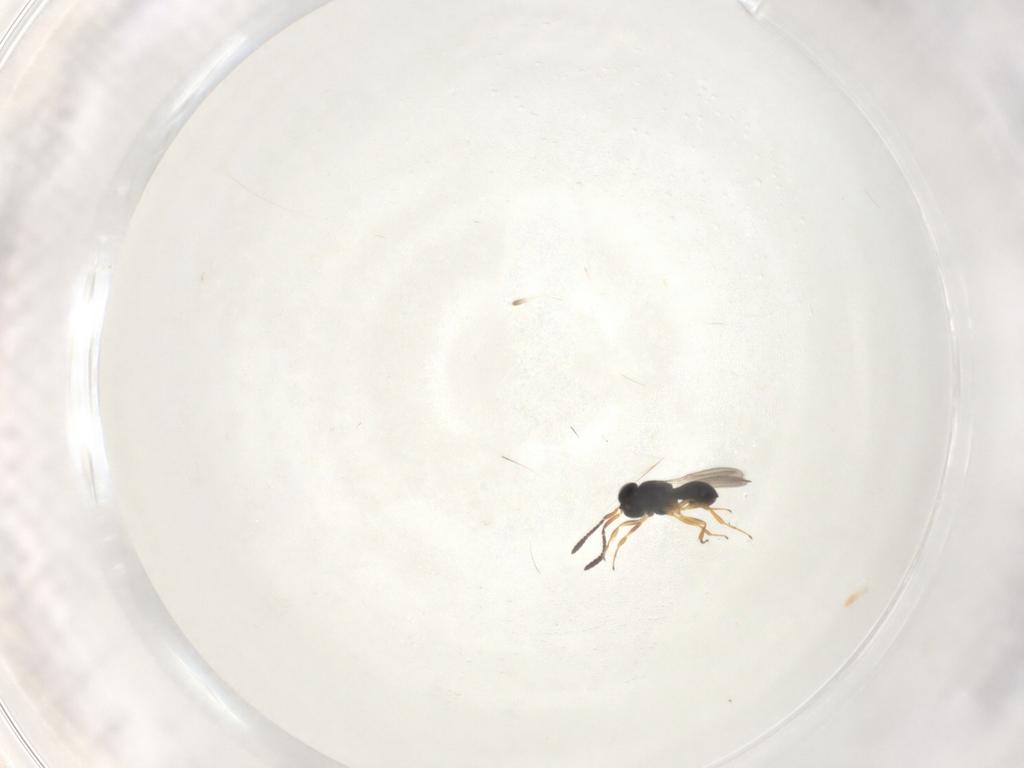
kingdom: Animalia
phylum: Arthropoda
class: Insecta
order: Hymenoptera
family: Scelionidae
